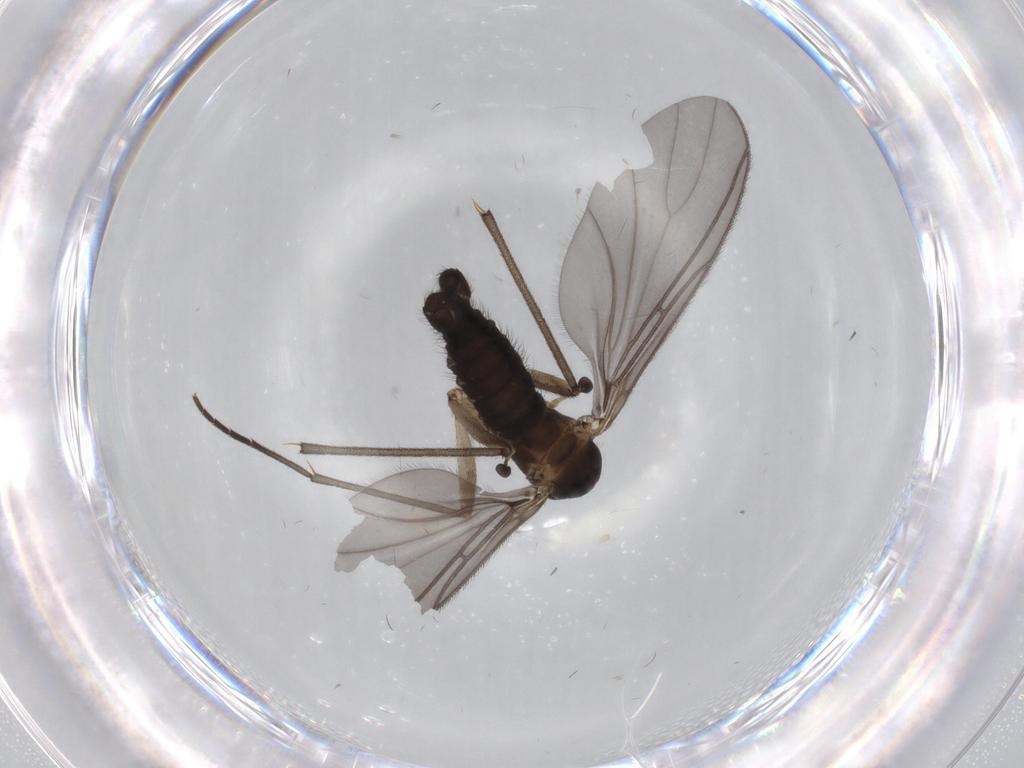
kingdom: Animalia
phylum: Arthropoda
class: Insecta
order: Diptera
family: Sciaridae
